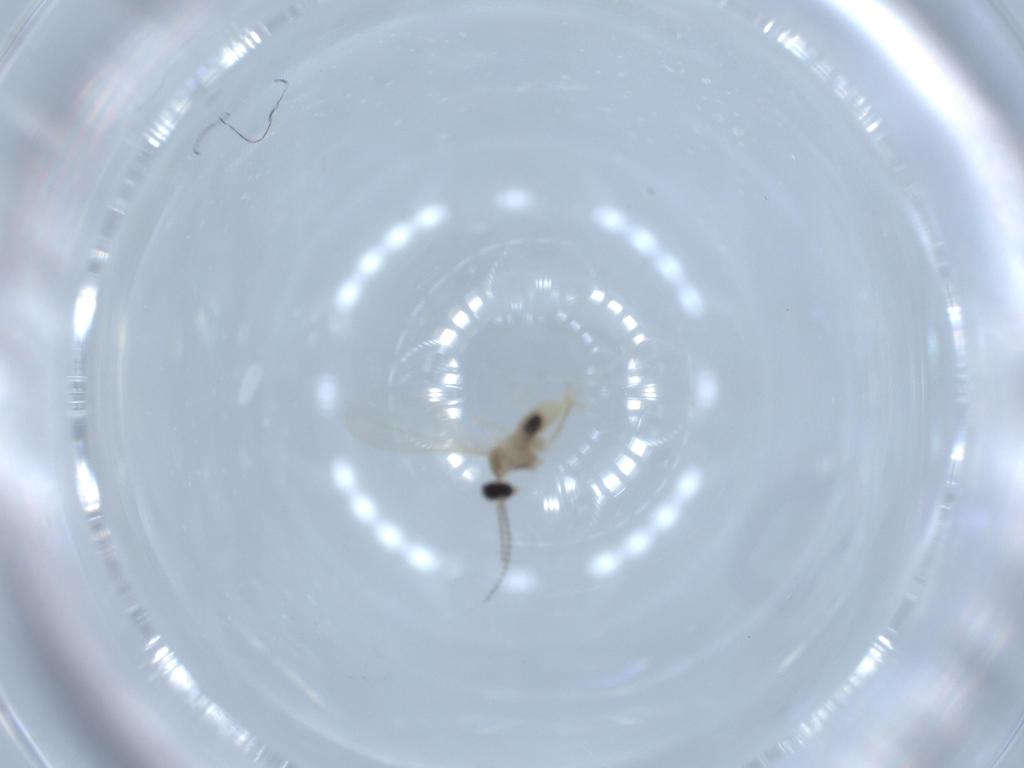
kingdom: Animalia
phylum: Arthropoda
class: Insecta
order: Diptera
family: Cecidomyiidae
